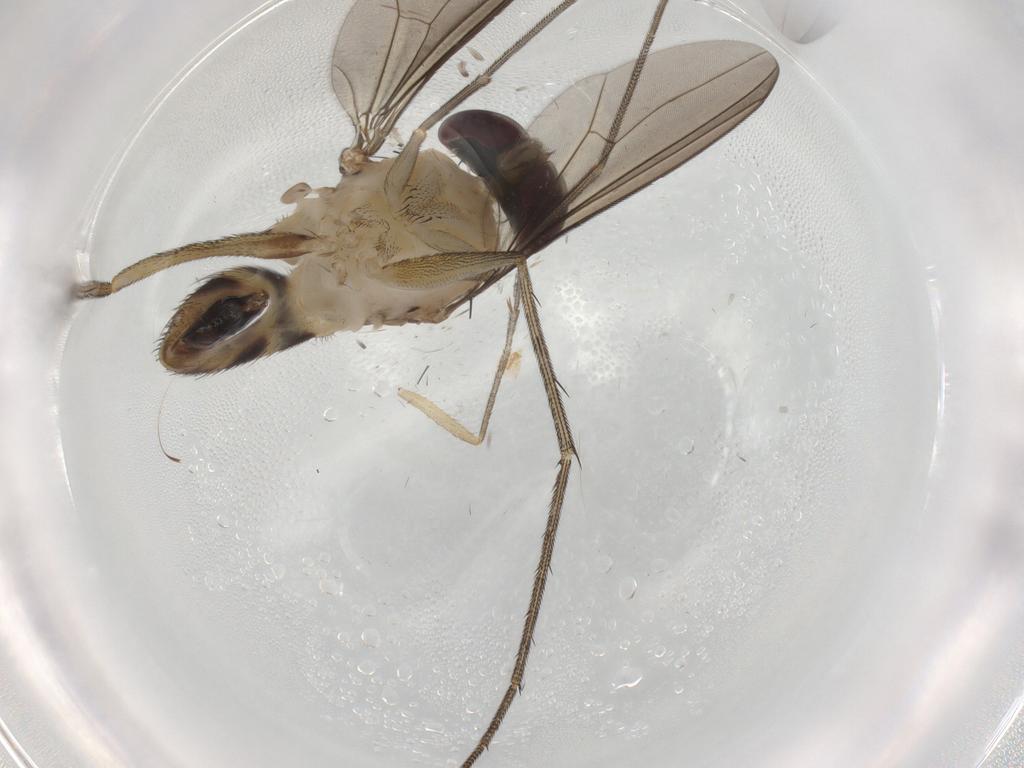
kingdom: Animalia
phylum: Arthropoda
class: Insecta
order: Diptera
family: Dolichopodidae
